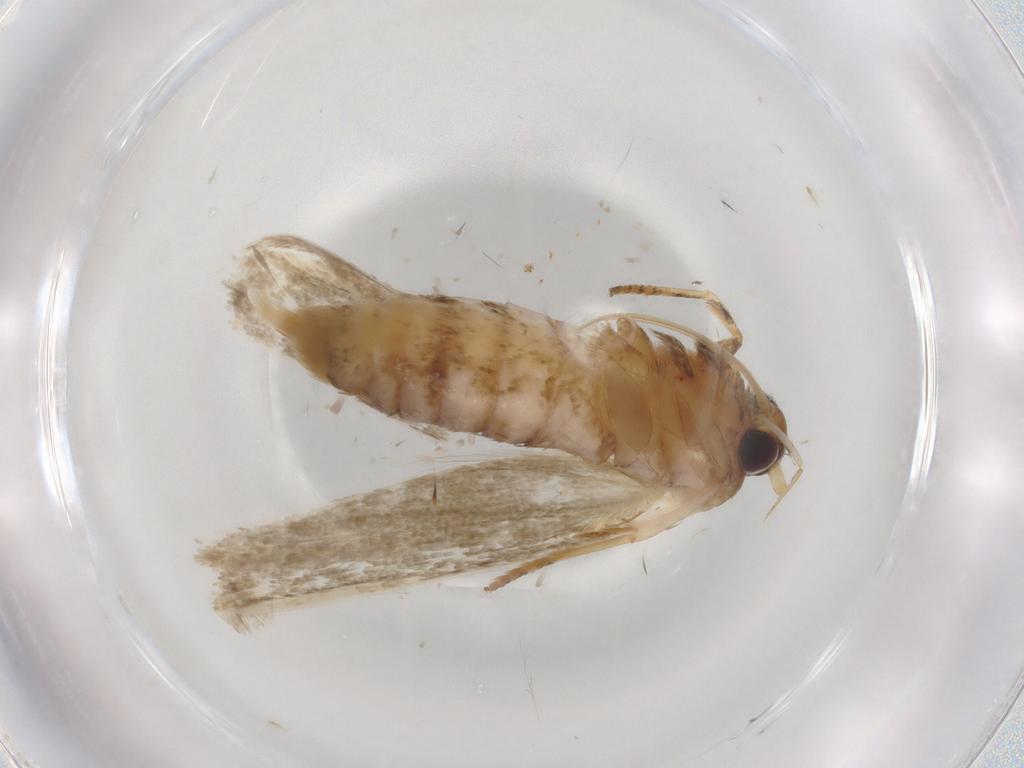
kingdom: Animalia
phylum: Arthropoda
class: Insecta
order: Lepidoptera
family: Blastobasidae
